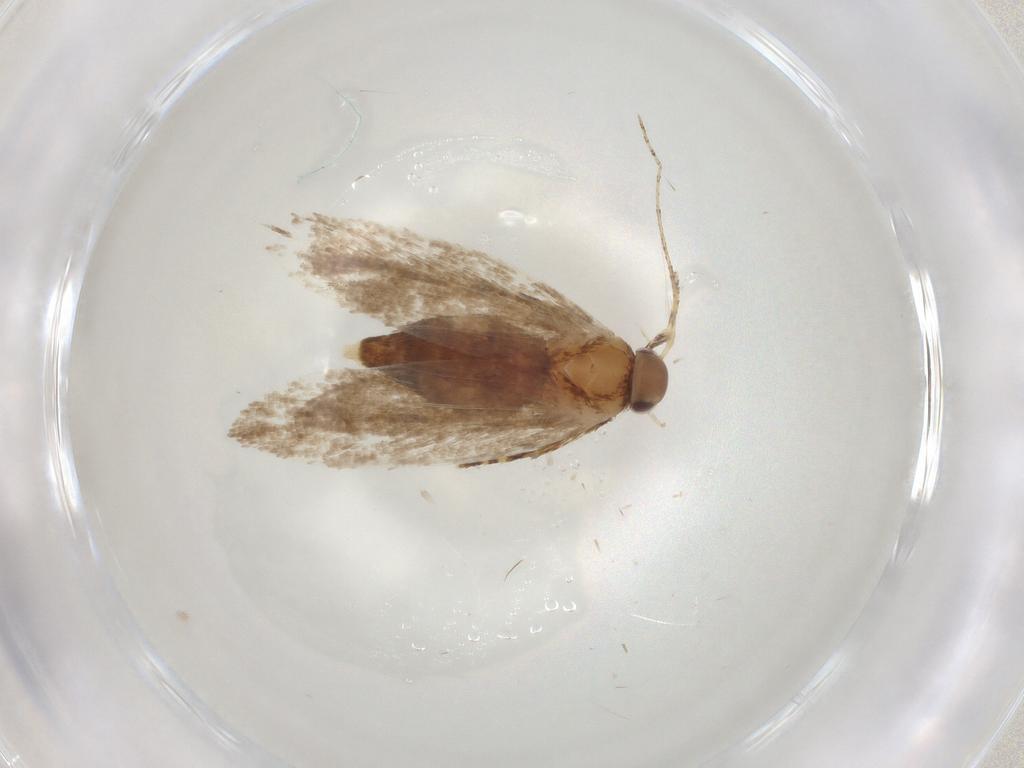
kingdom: Animalia
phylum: Arthropoda
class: Insecta
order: Lepidoptera
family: Oecophoridae
